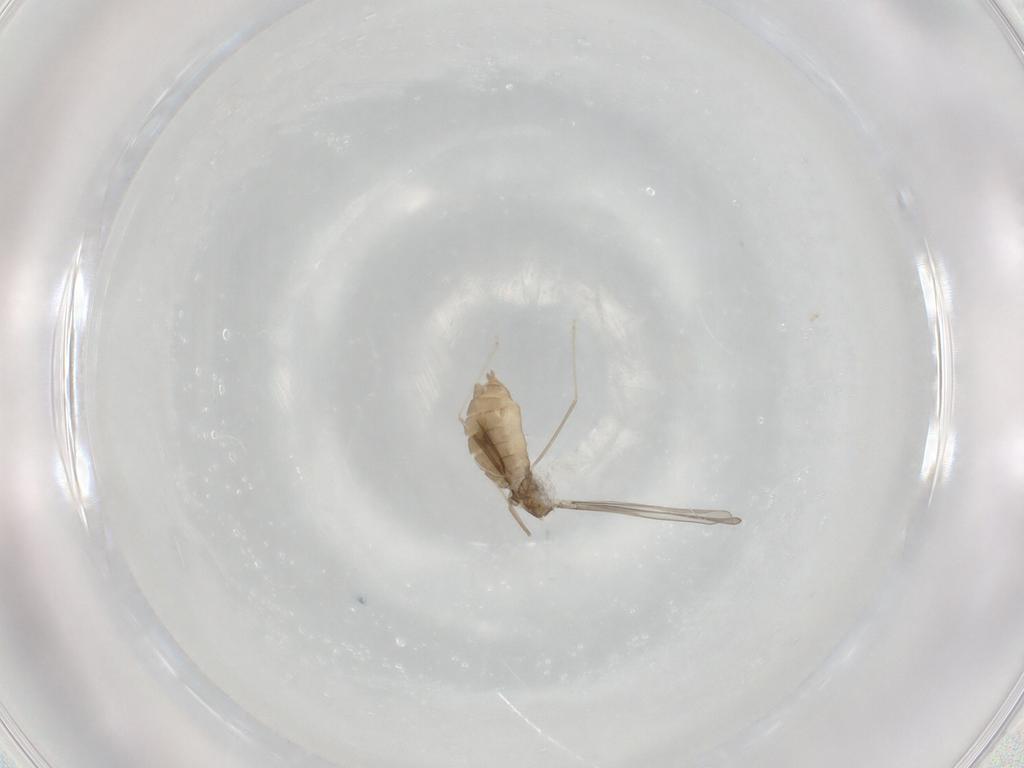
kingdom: Animalia
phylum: Arthropoda
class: Insecta
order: Diptera
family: Cecidomyiidae
